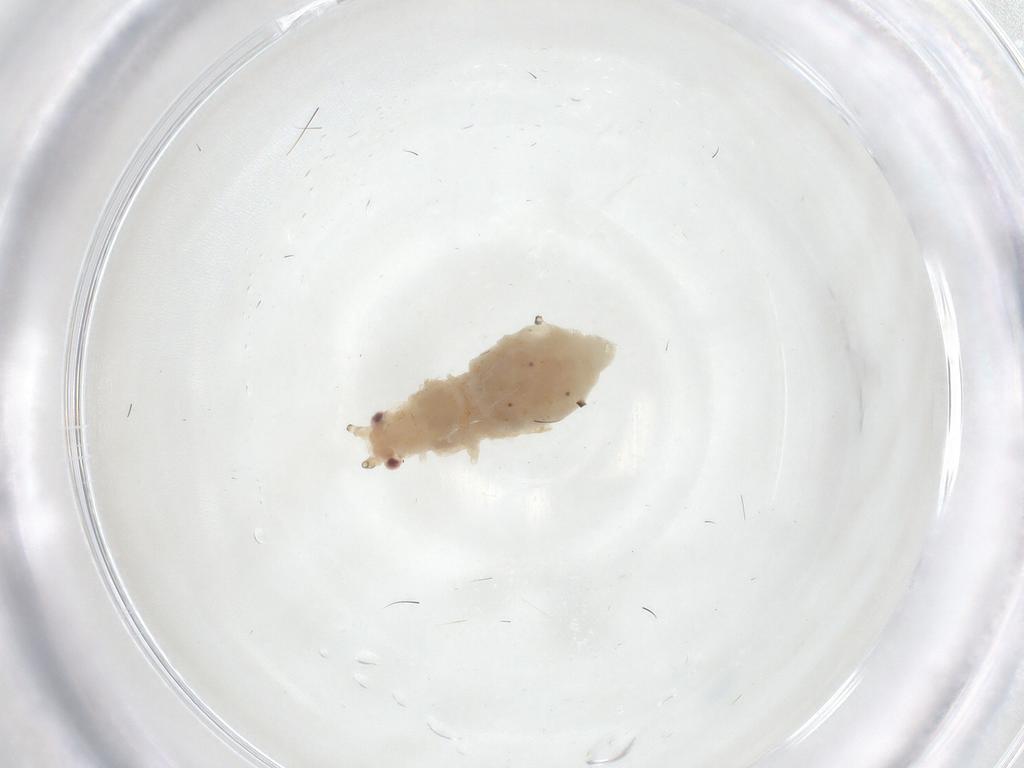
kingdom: Animalia
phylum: Arthropoda
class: Insecta
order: Hemiptera
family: Aphididae
